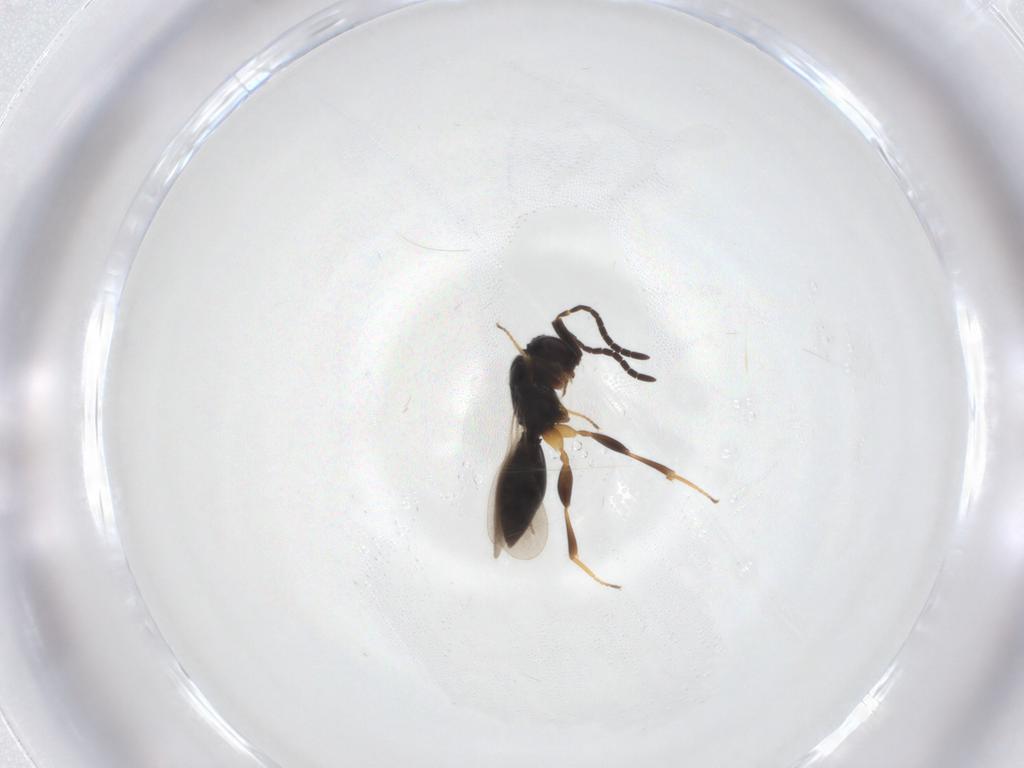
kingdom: Animalia
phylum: Arthropoda
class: Insecta
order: Hymenoptera
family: Megaspilidae
